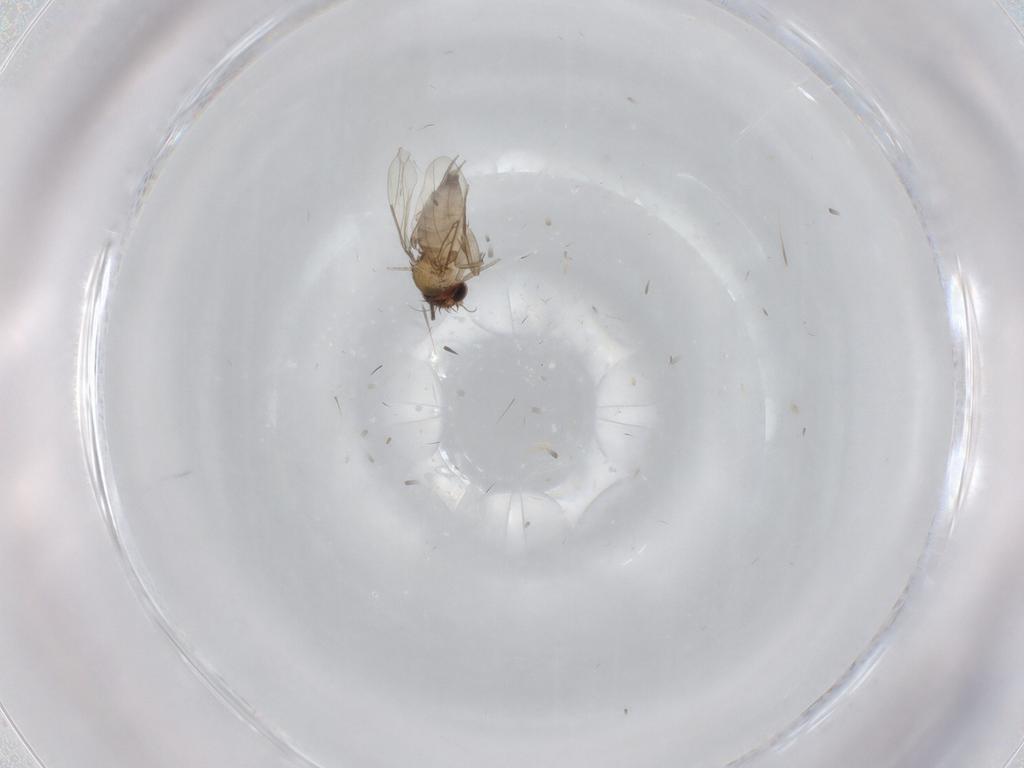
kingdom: Animalia
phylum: Arthropoda
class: Insecta
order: Diptera
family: Phoridae
